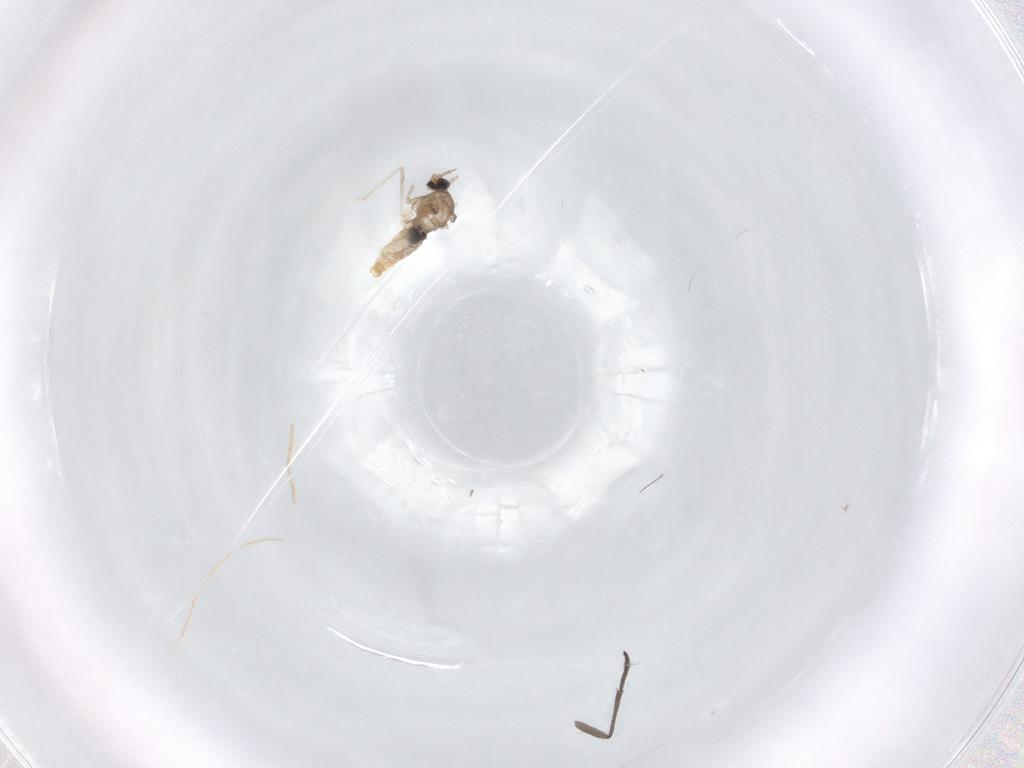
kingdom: Animalia
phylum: Arthropoda
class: Insecta
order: Diptera
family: Cecidomyiidae
